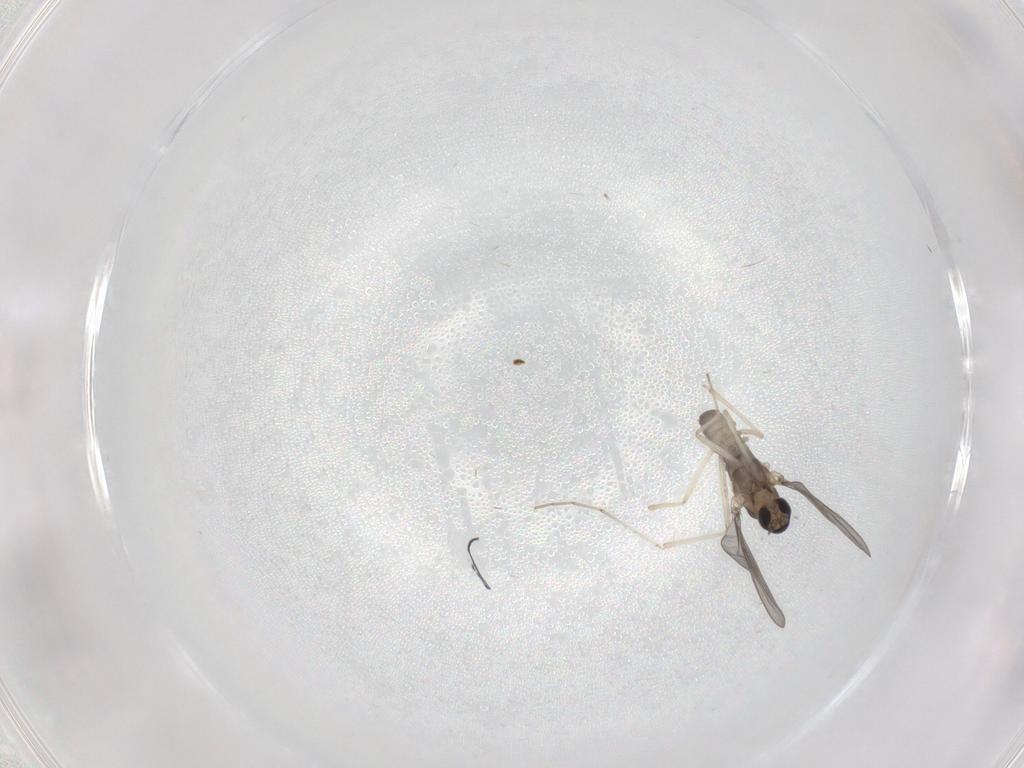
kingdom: Animalia
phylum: Arthropoda
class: Insecta
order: Diptera
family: Cecidomyiidae
